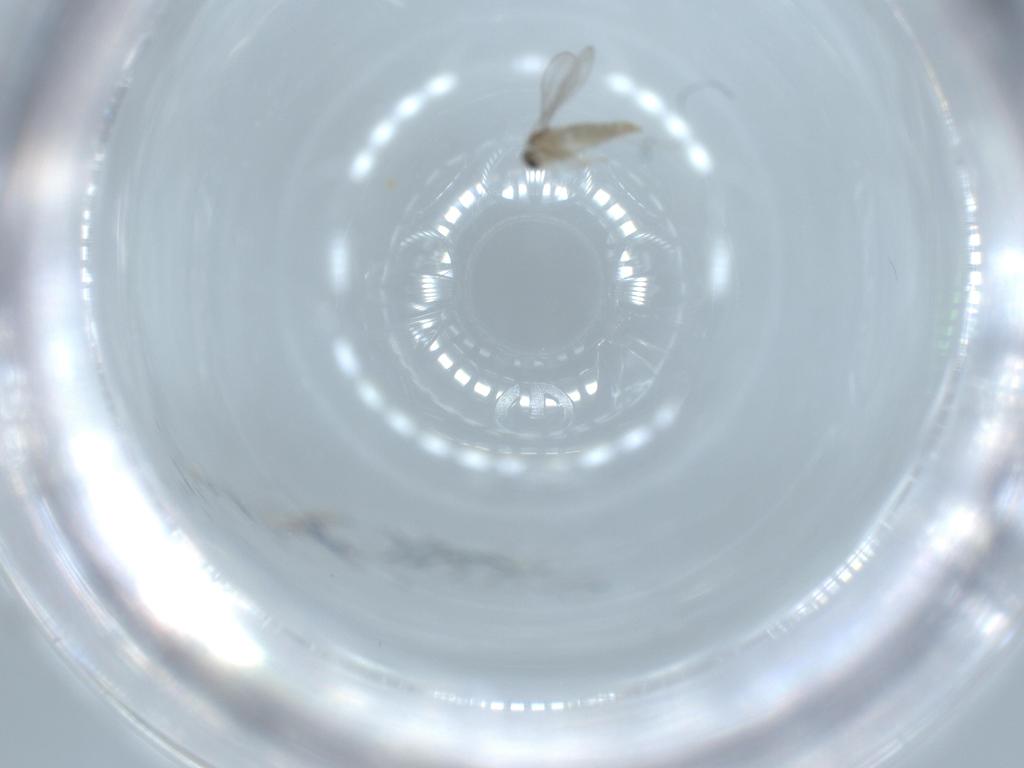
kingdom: Animalia
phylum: Arthropoda
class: Insecta
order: Diptera
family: Cecidomyiidae
